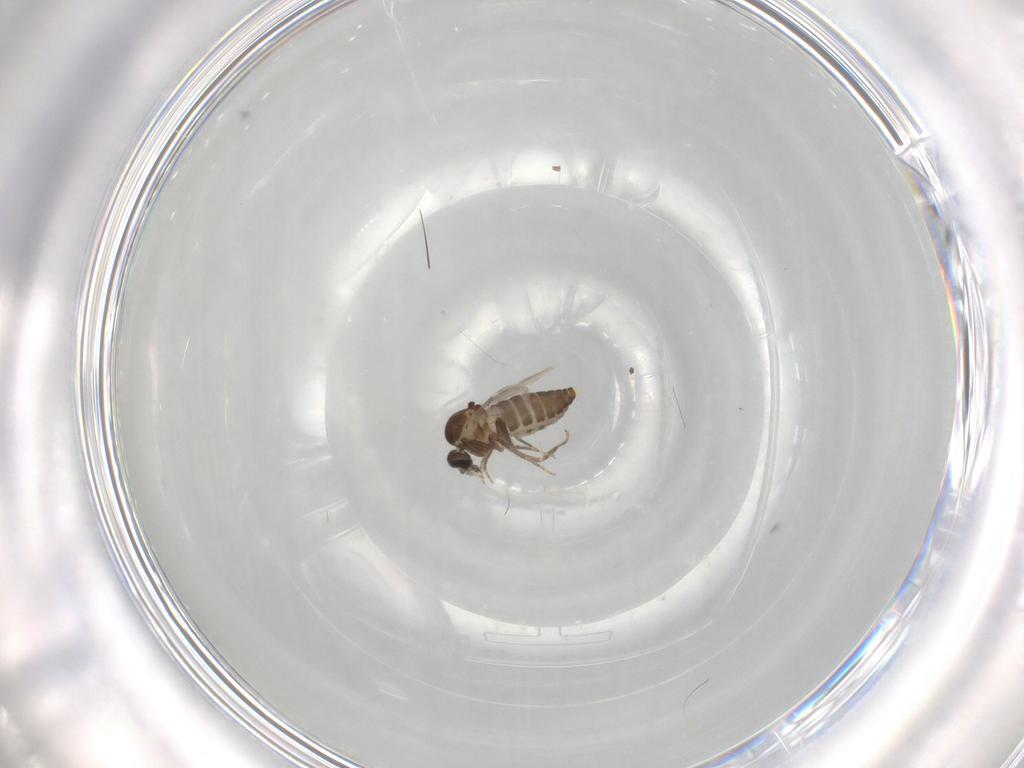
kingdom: Animalia
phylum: Arthropoda
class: Insecta
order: Diptera
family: Ceratopogonidae
